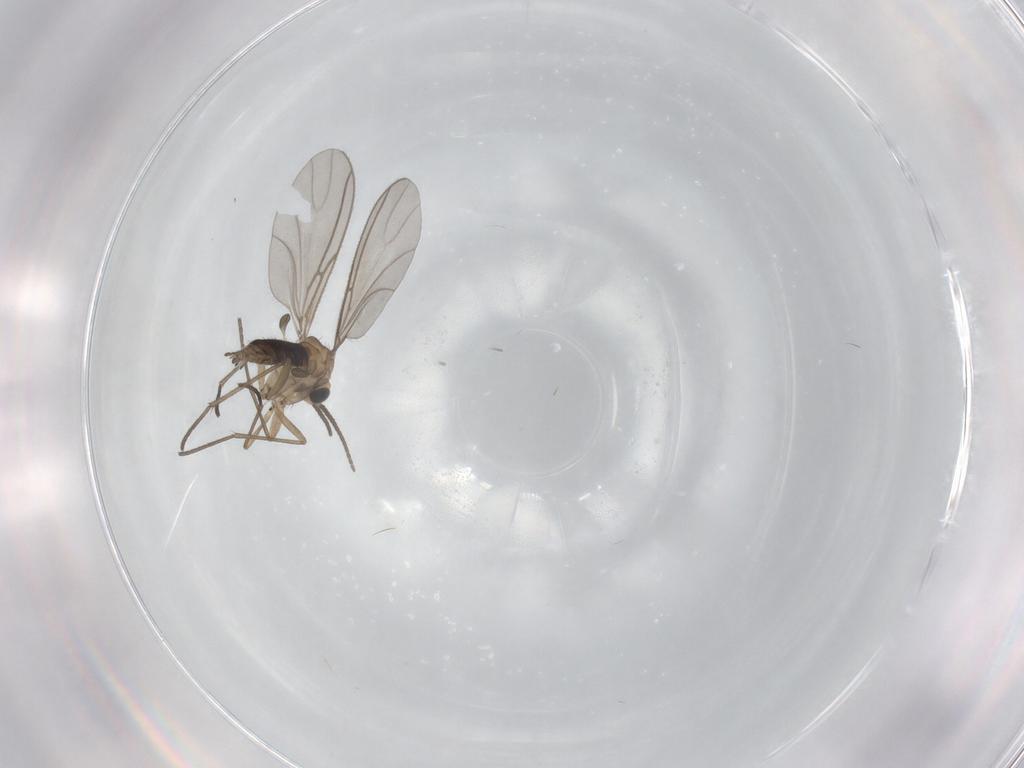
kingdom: Animalia
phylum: Arthropoda
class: Insecta
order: Diptera
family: Sciaridae
